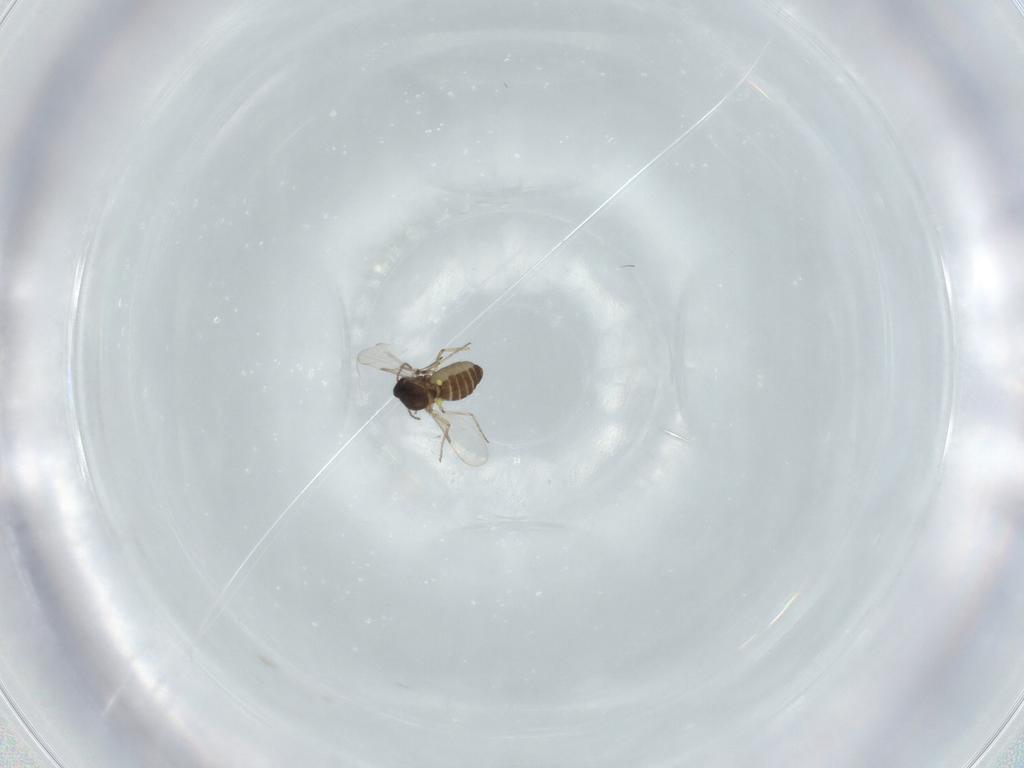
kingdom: Animalia
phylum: Arthropoda
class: Insecta
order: Diptera
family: Ceratopogonidae
